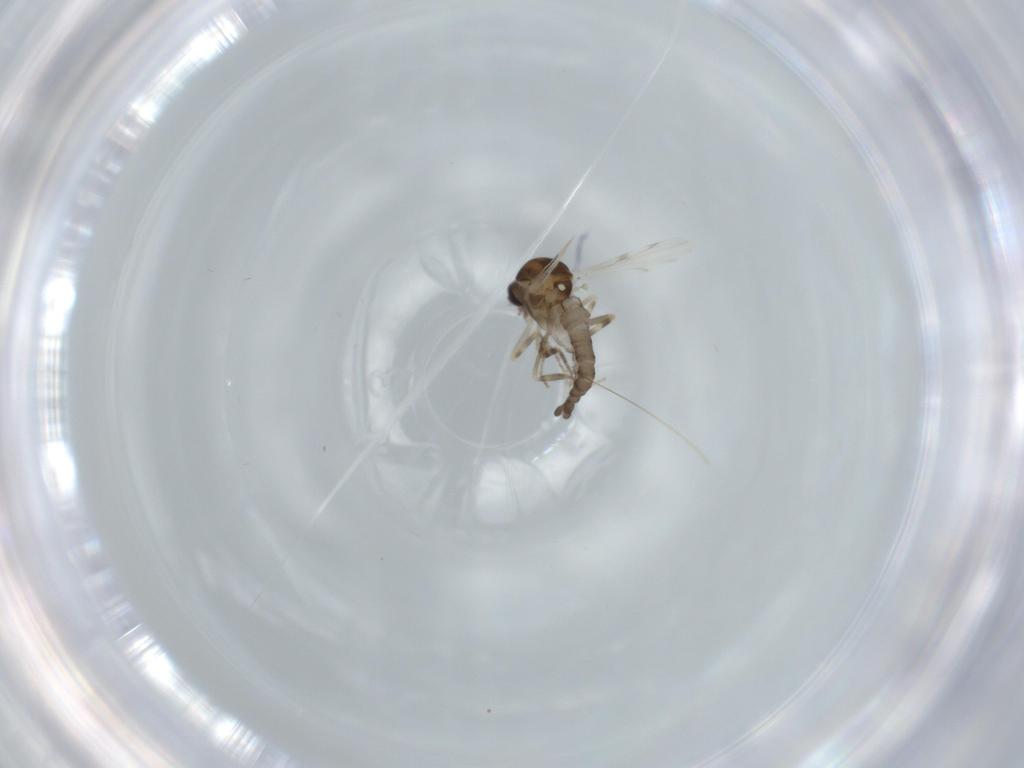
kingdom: Animalia
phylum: Arthropoda
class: Insecta
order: Diptera
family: Ceratopogonidae
